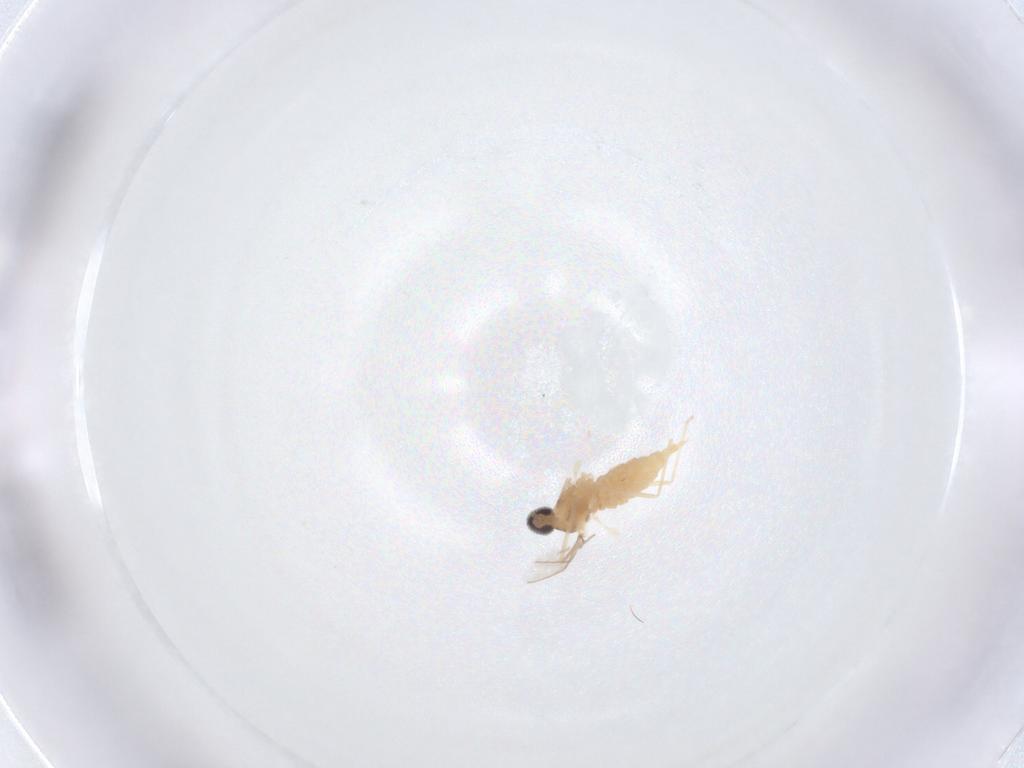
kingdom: Animalia
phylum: Arthropoda
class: Insecta
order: Diptera
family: Cecidomyiidae
